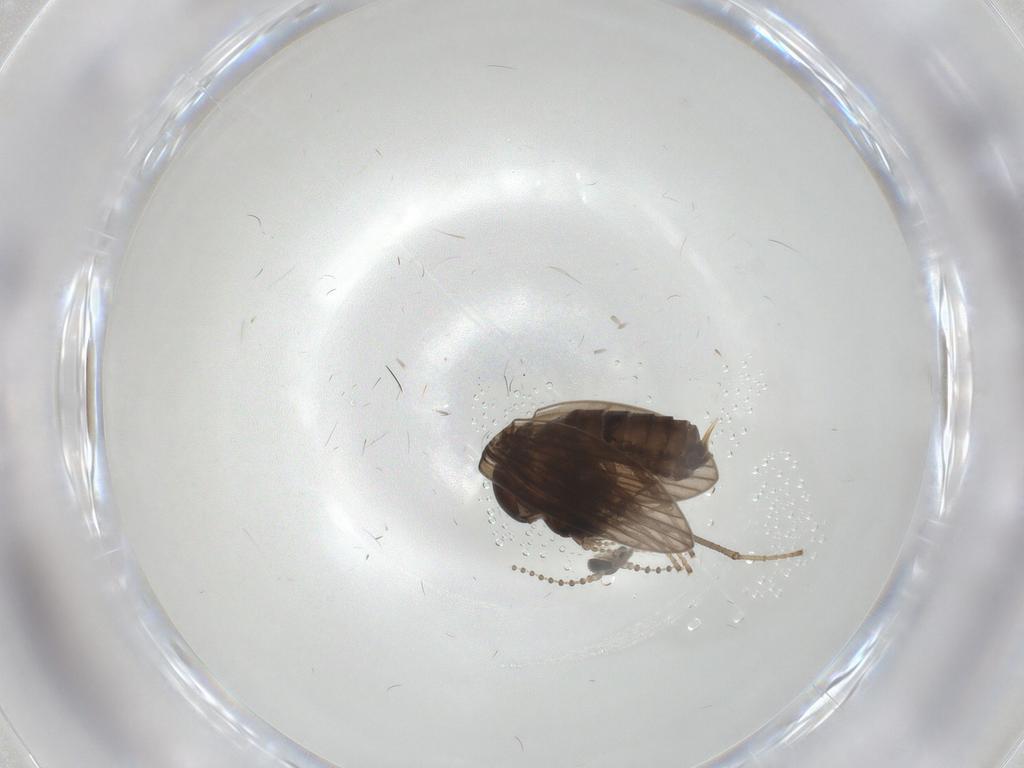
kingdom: Animalia
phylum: Arthropoda
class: Insecta
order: Diptera
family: Psychodidae
